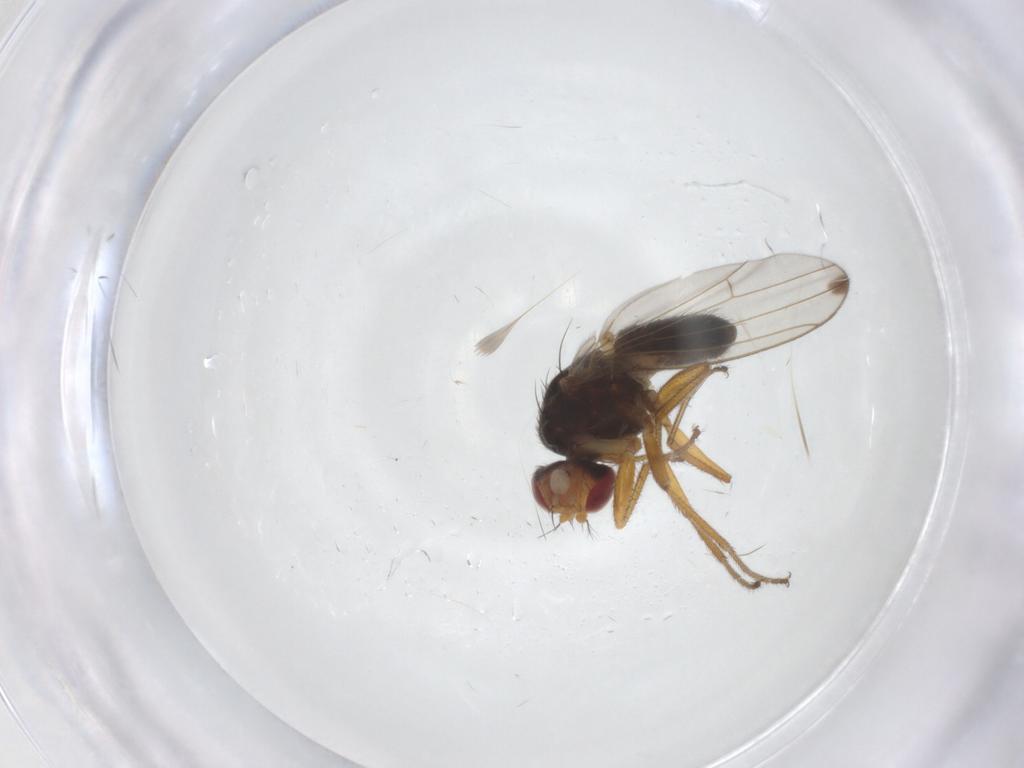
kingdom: Animalia
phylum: Arthropoda
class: Insecta
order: Diptera
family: Drosophilidae
